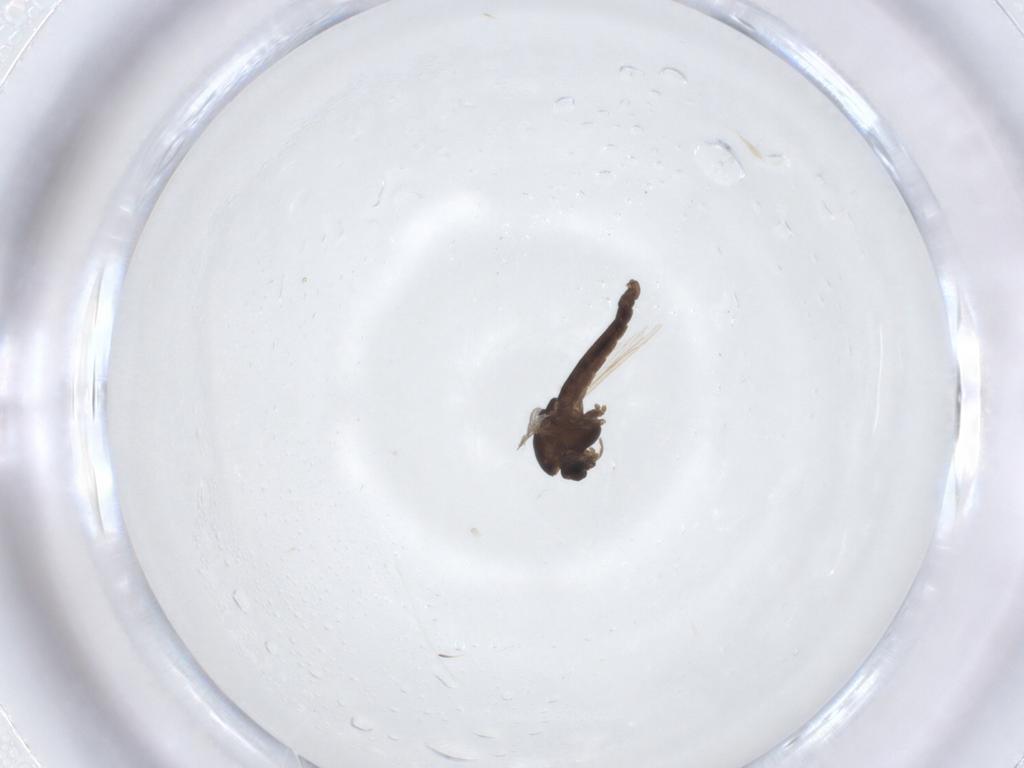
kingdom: Animalia
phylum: Arthropoda
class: Insecta
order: Diptera
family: Chironomidae
